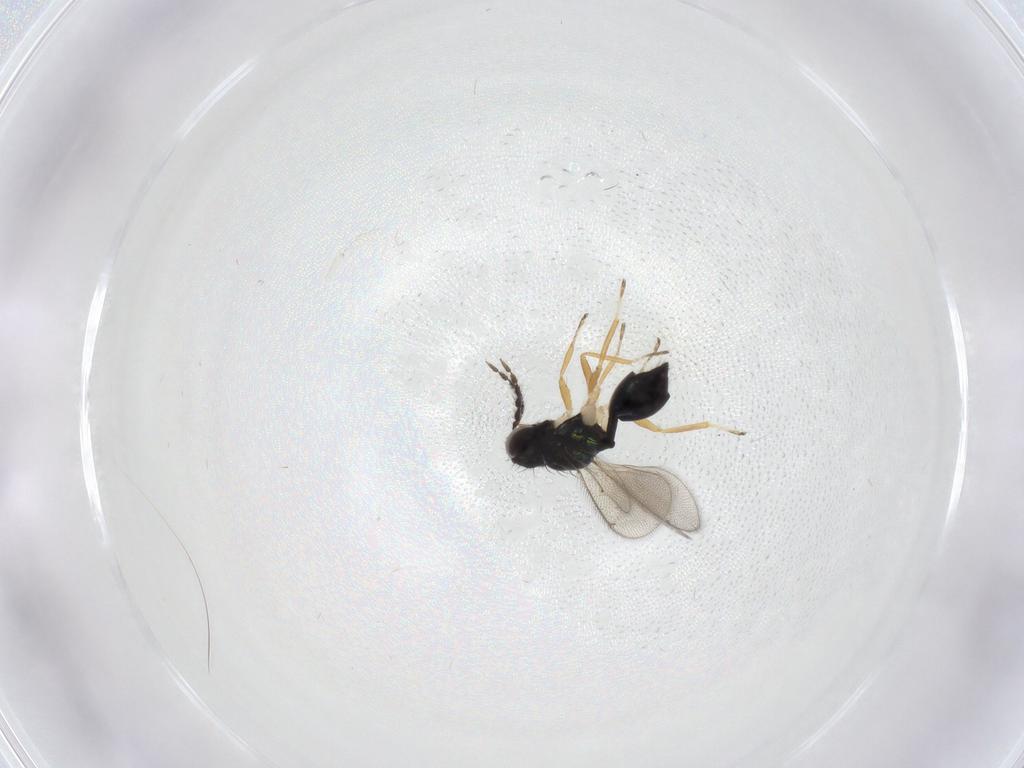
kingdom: Animalia
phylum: Arthropoda
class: Insecta
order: Hymenoptera
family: Eulophidae
